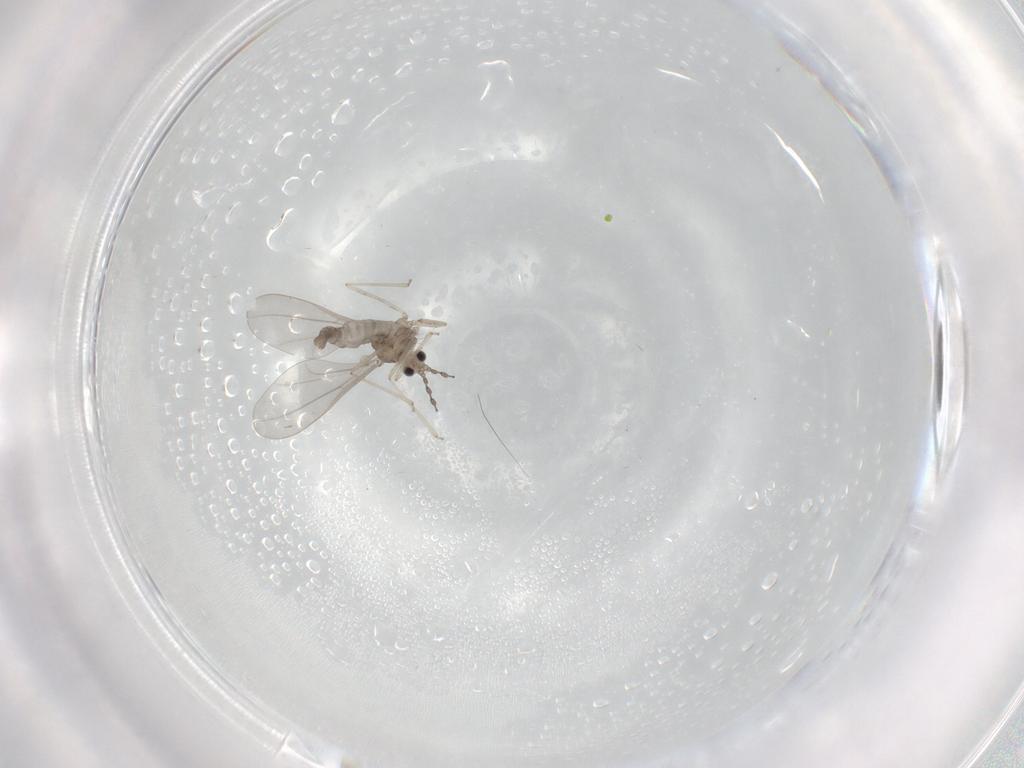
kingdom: Animalia
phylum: Arthropoda
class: Insecta
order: Diptera
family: Cecidomyiidae
